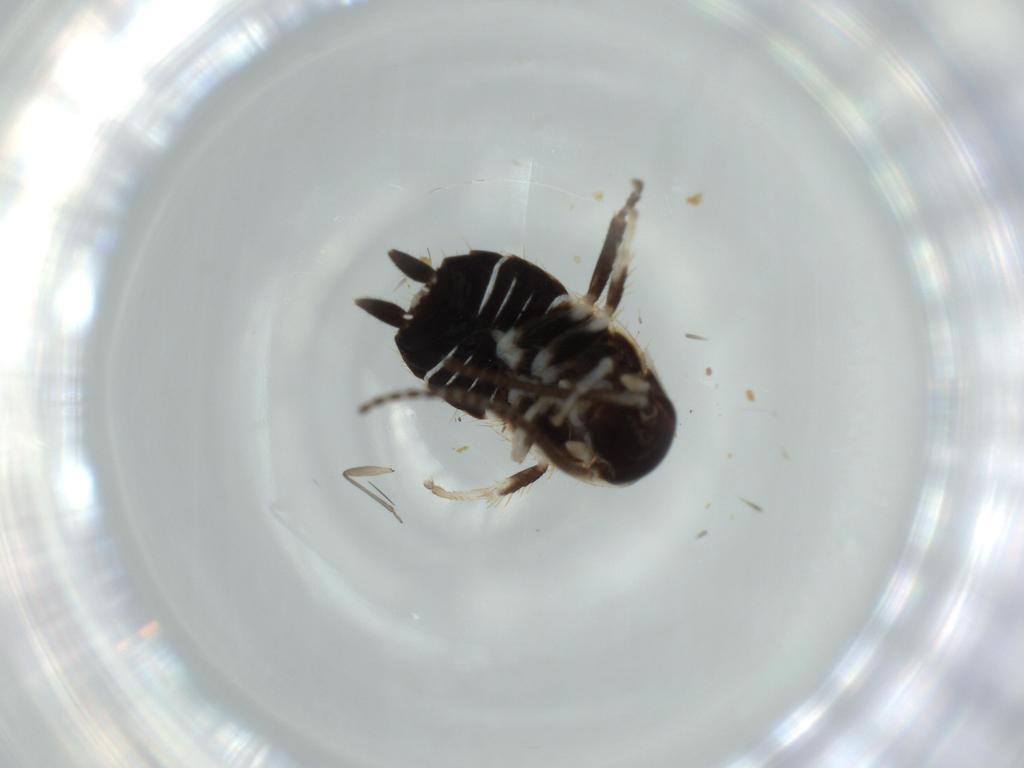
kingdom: Animalia
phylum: Arthropoda
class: Insecta
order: Blattodea
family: Ectobiidae
